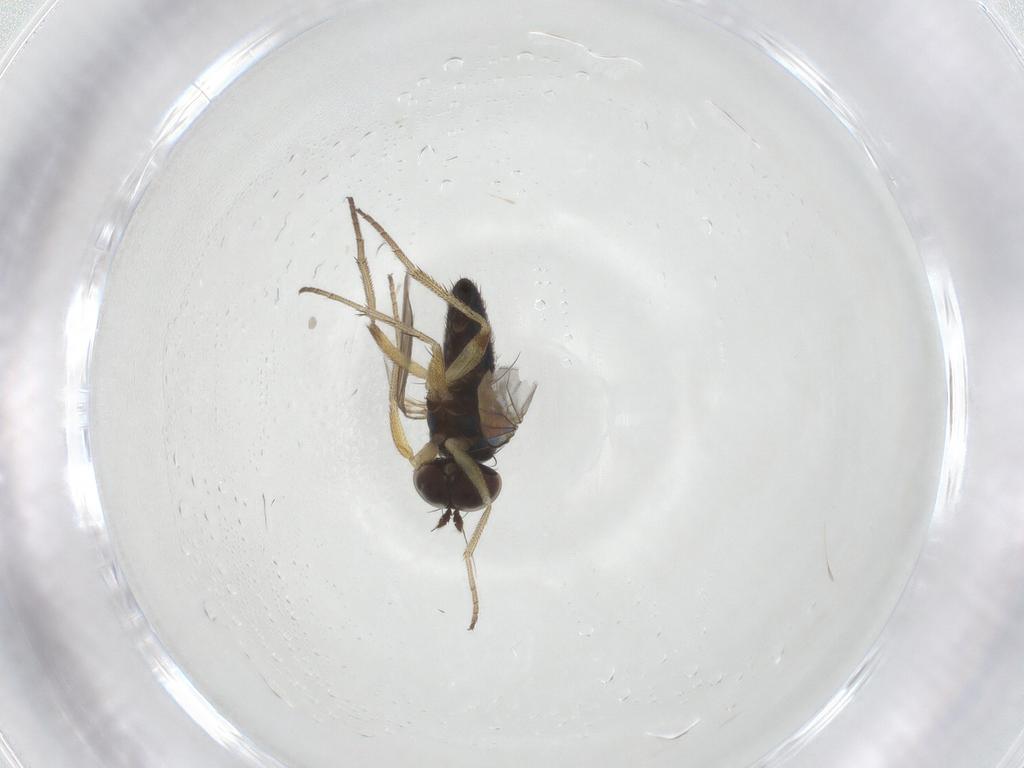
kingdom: Animalia
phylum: Arthropoda
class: Insecta
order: Diptera
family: Dolichopodidae
